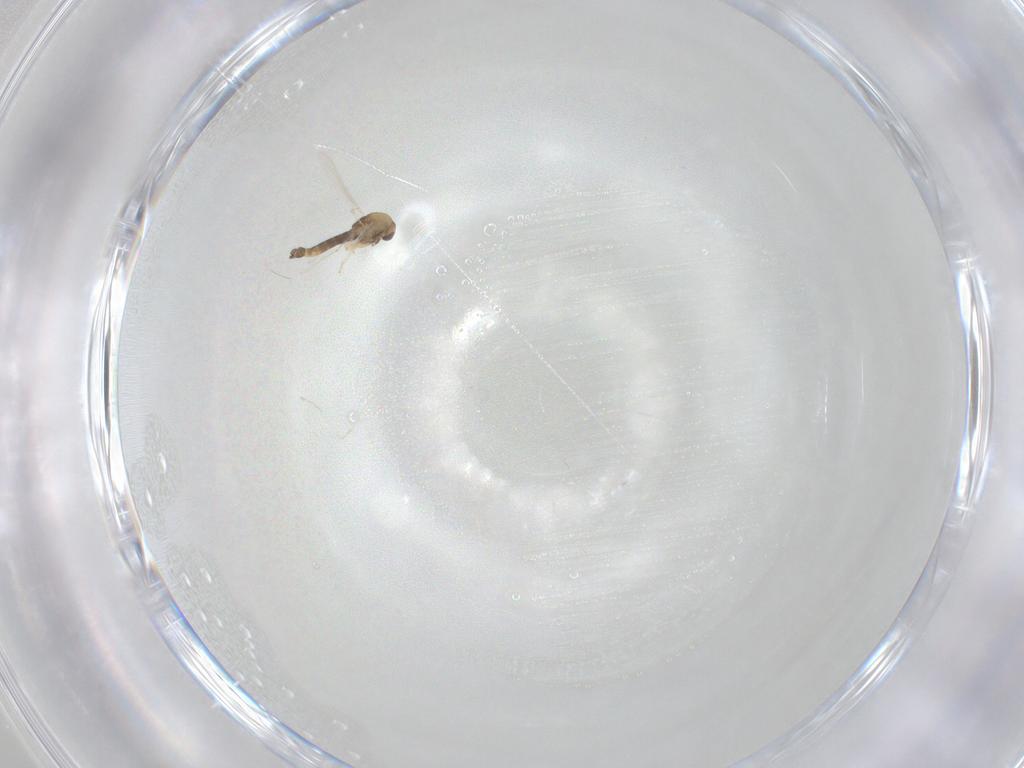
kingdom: Animalia
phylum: Arthropoda
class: Insecta
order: Diptera
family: Chironomidae
